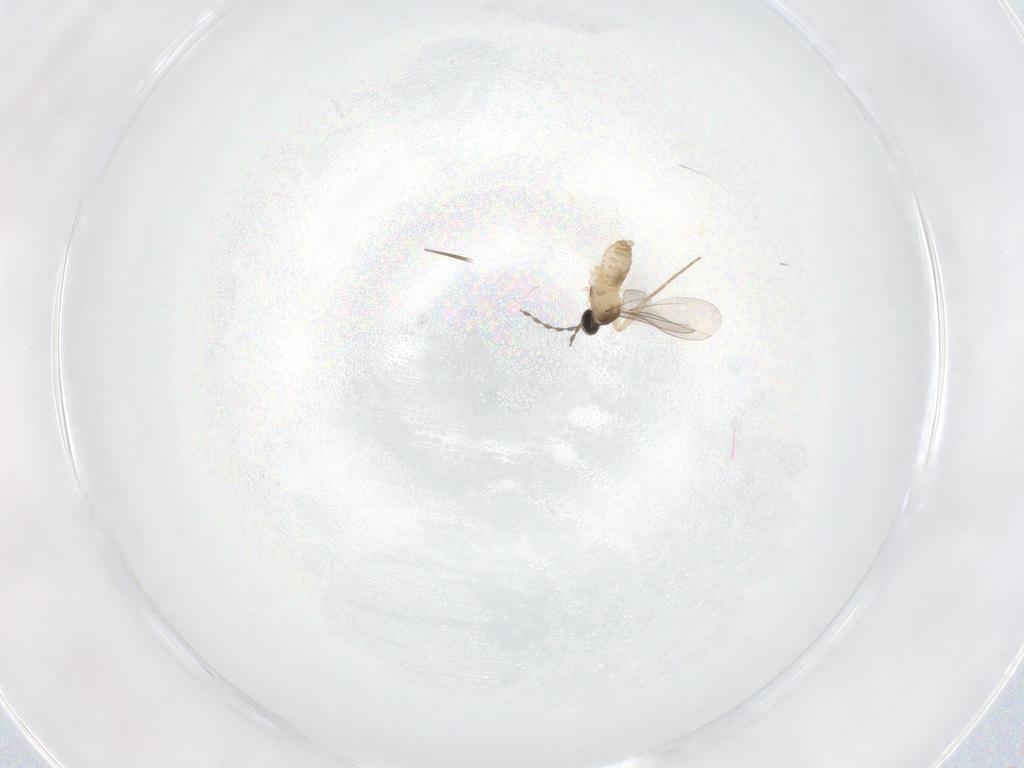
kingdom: Animalia
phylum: Arthropoda
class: Insecta
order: Diptera
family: Cecidomyiidae
